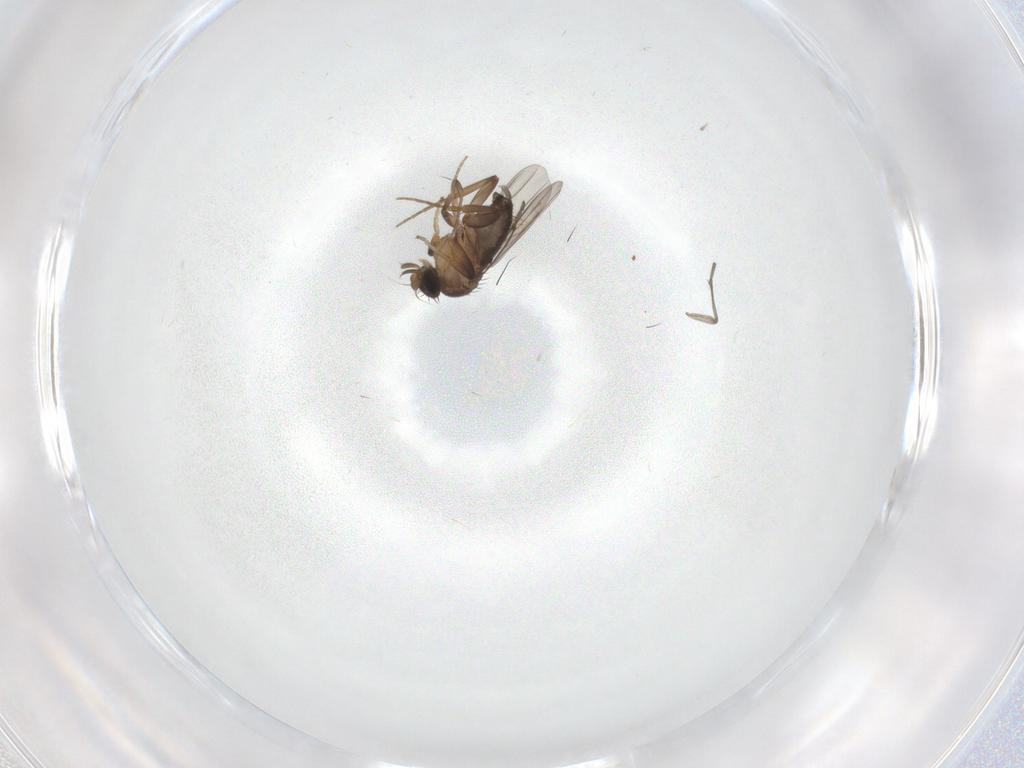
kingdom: Animalia
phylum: Arthropoda
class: Insecta
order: Diptera
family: Sciaridae
